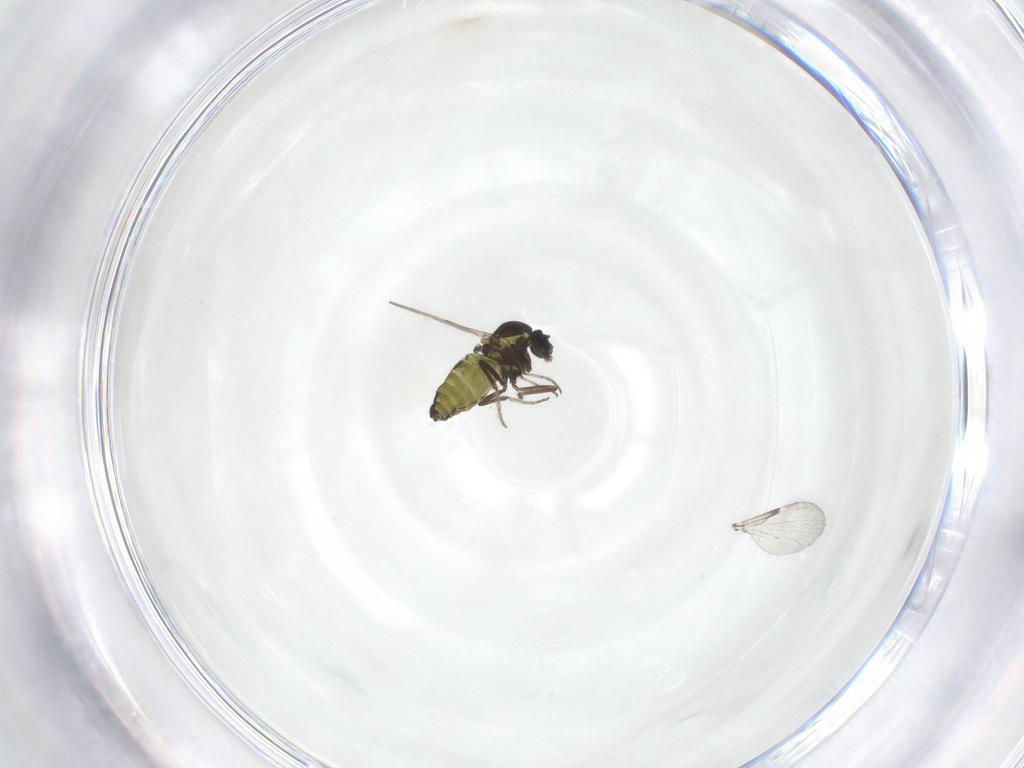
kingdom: Animalia
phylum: Arthropoda
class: Insecta
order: Diptera
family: Ceratopogonidae
